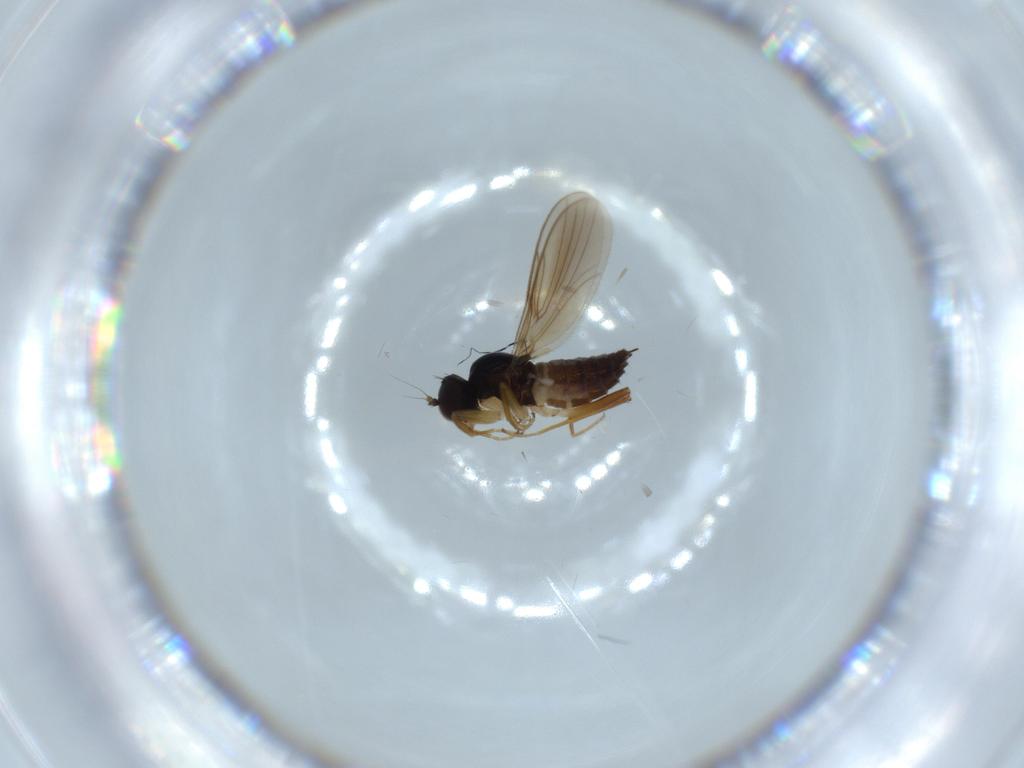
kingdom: Animalia
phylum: Arthropoda
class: Insecta
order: Diptera
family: Hybotidae
